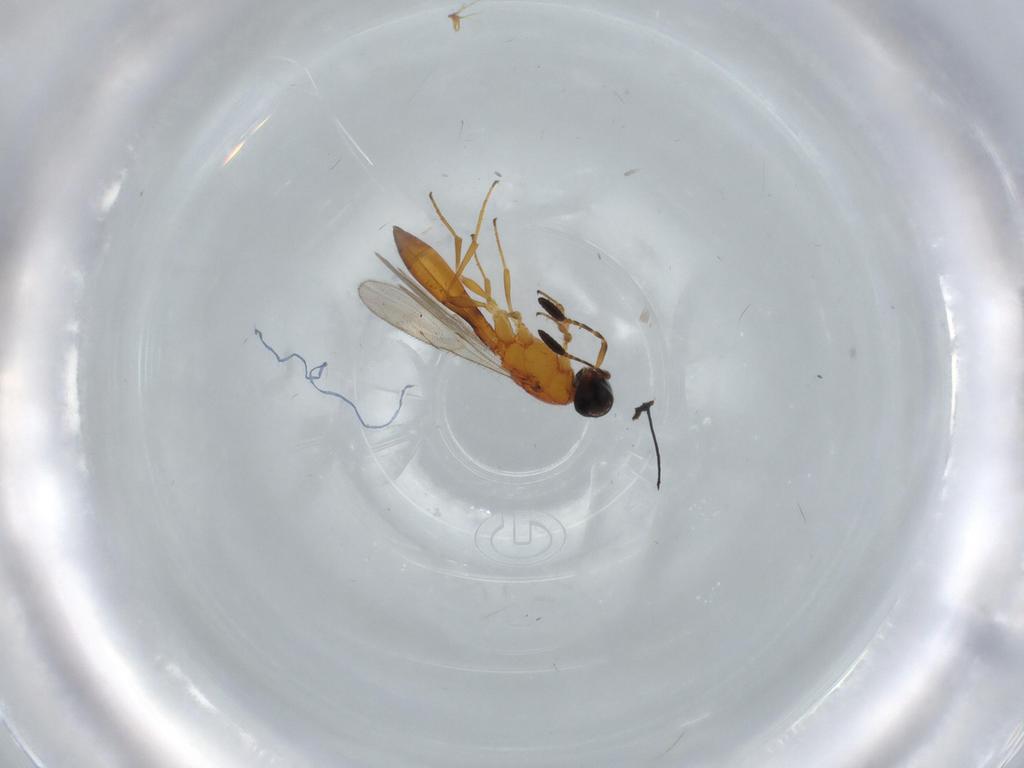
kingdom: Animalia
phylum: Arthropoda
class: Insecta
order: Hymenoptera
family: Scelionidae
